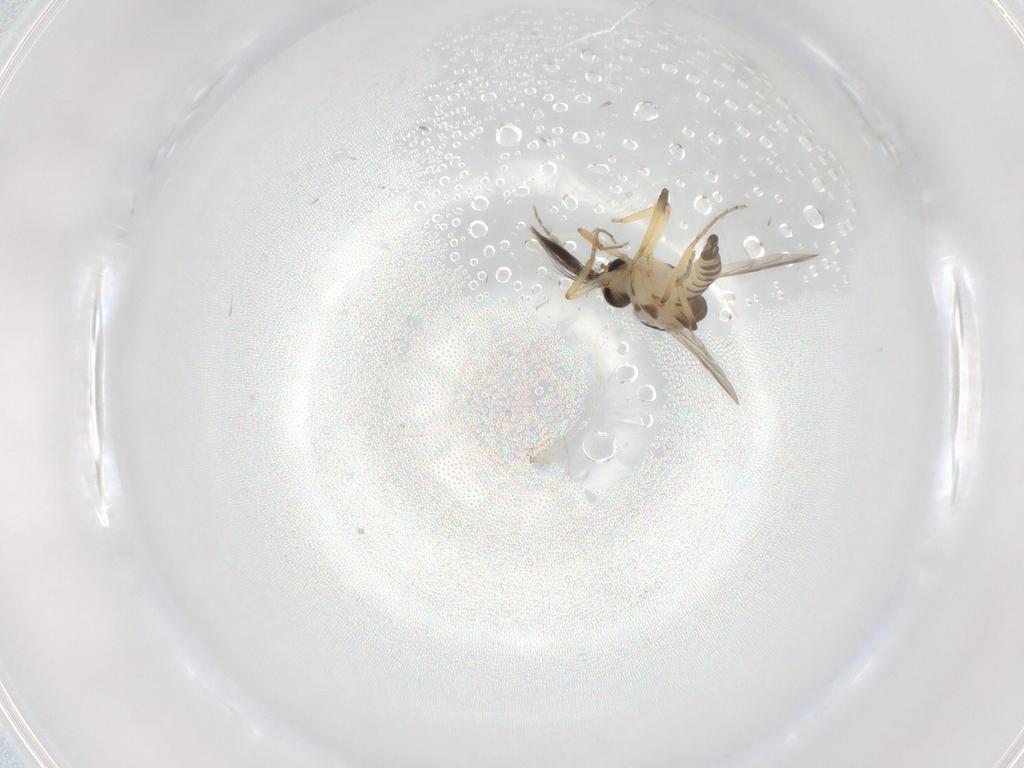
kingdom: Animalia
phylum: Arthropoda
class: Insecta
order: Diptera
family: Ceratopogonidae
